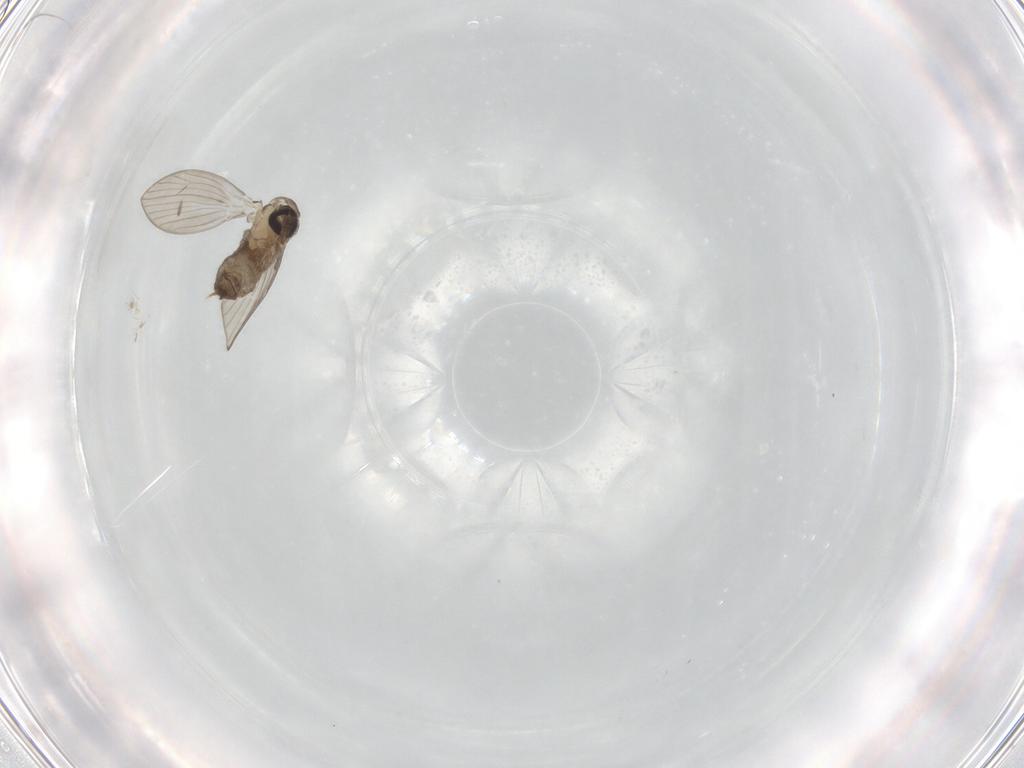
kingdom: Animalia
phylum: Arthropoda
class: Insecta
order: Diptera
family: Psychodidae
